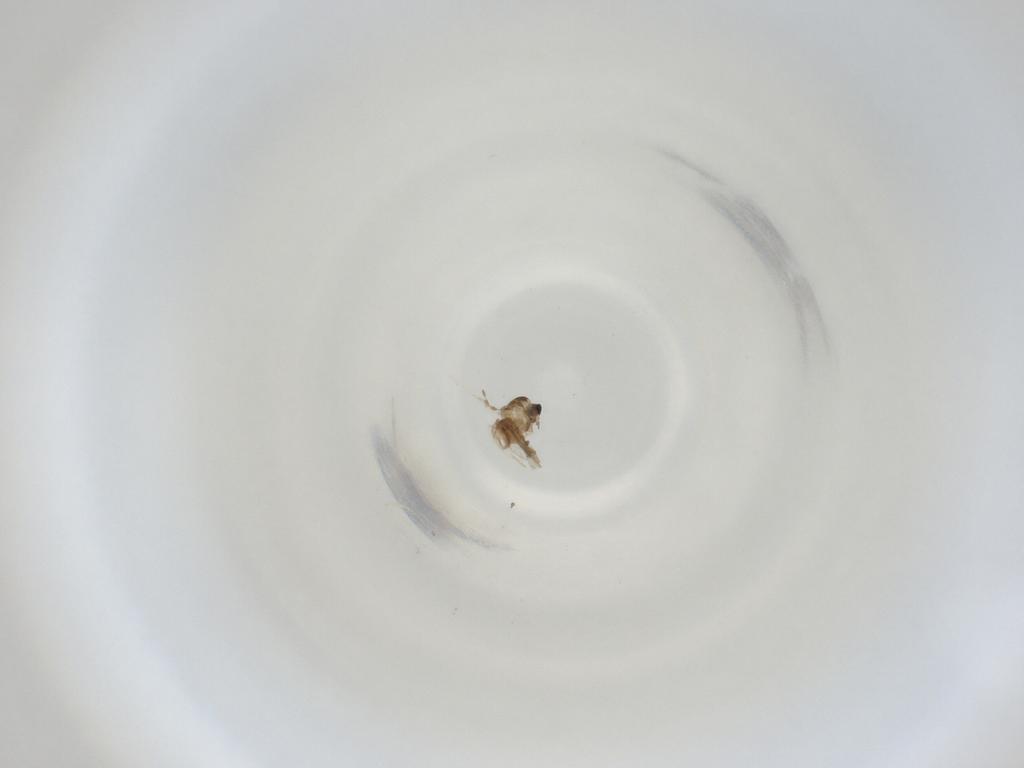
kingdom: Animalia
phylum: Arthropoda
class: Insecta
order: Diptera
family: Cecidomyiidae
